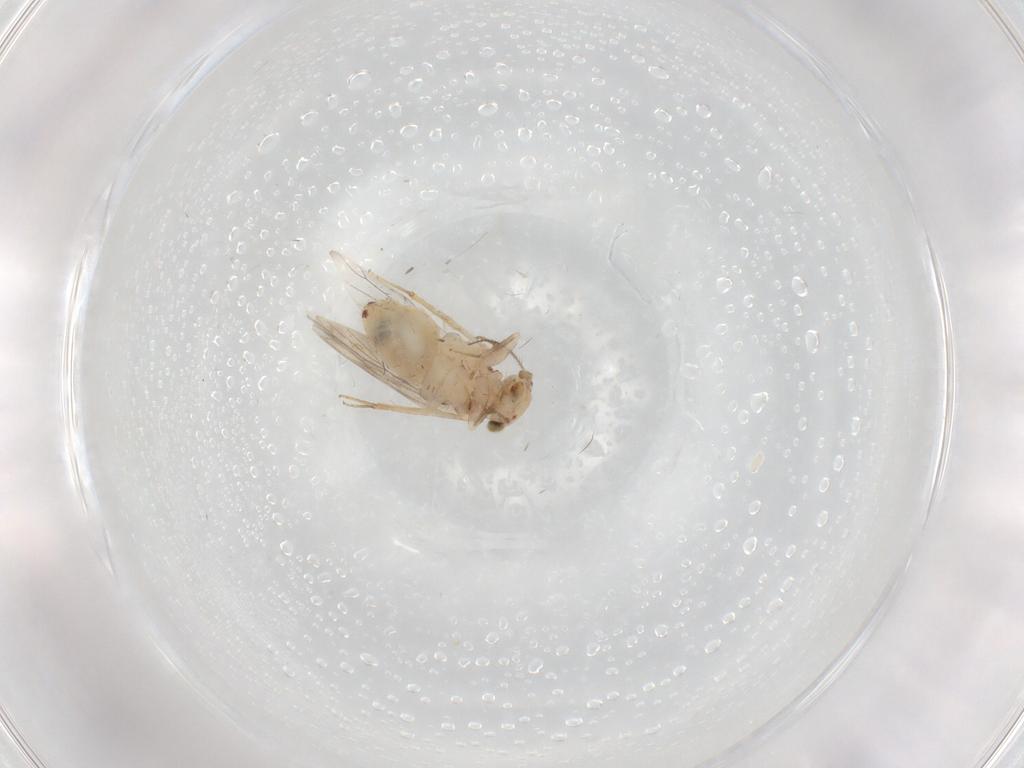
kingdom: Animalia
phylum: Arthropoda
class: Insecta
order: Psocodea
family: Lepidopsocidae
